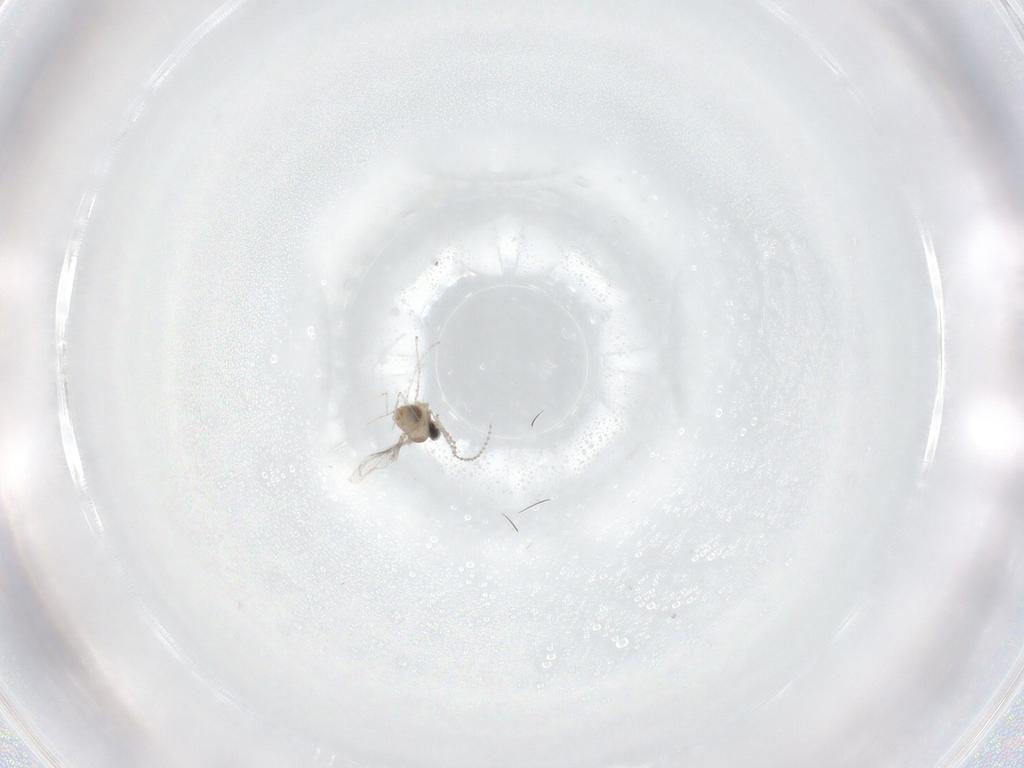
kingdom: Animalia
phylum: Arthropoda
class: Insecta
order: Diptera
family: Cecidomyiidae
